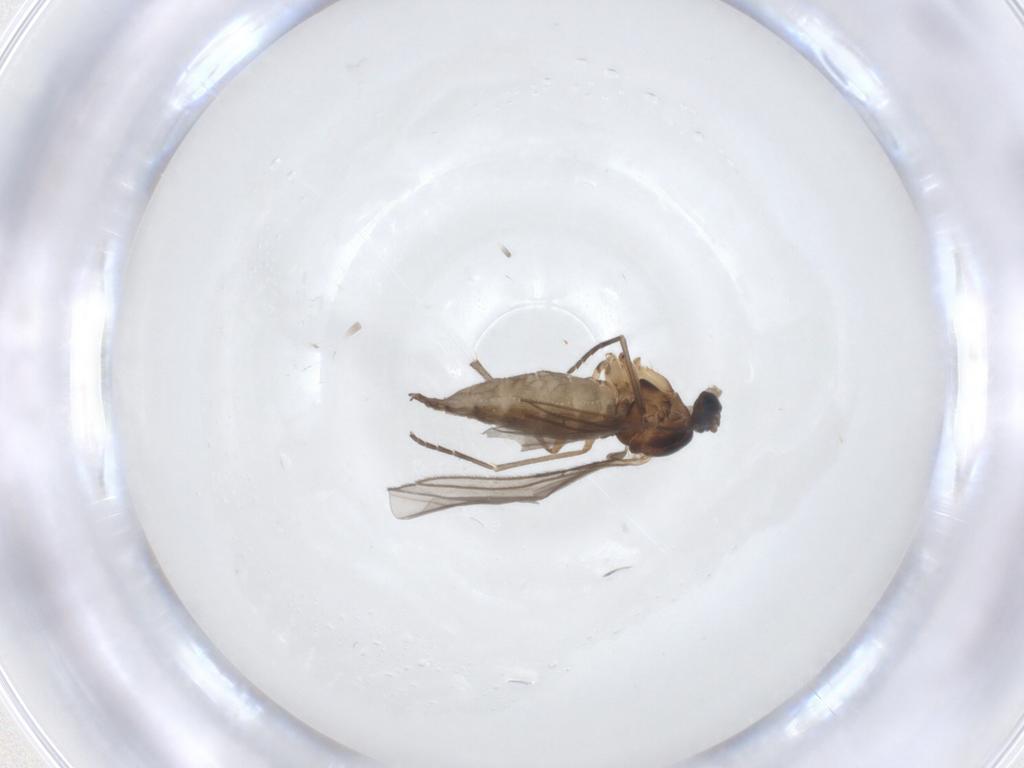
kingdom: Animalia
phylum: Arthropoda
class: Insecta
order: Diptera
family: Sciaridae
